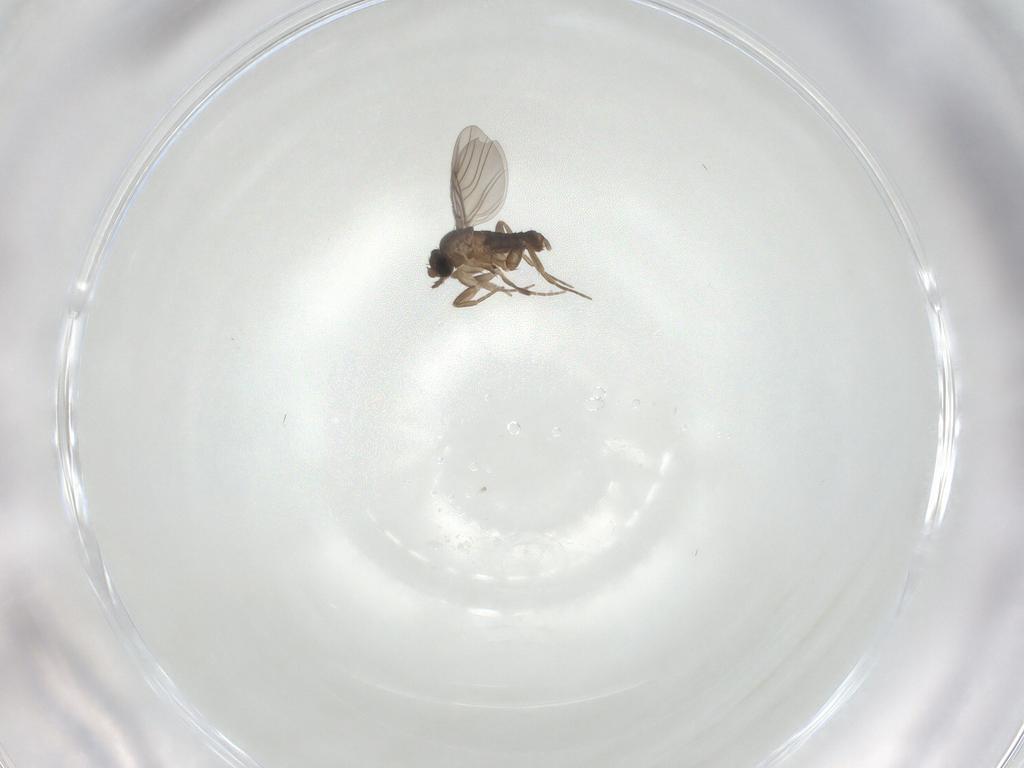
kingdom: Animalia
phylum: Arthropoda
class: Insecta
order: Diptera
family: Phoridae
